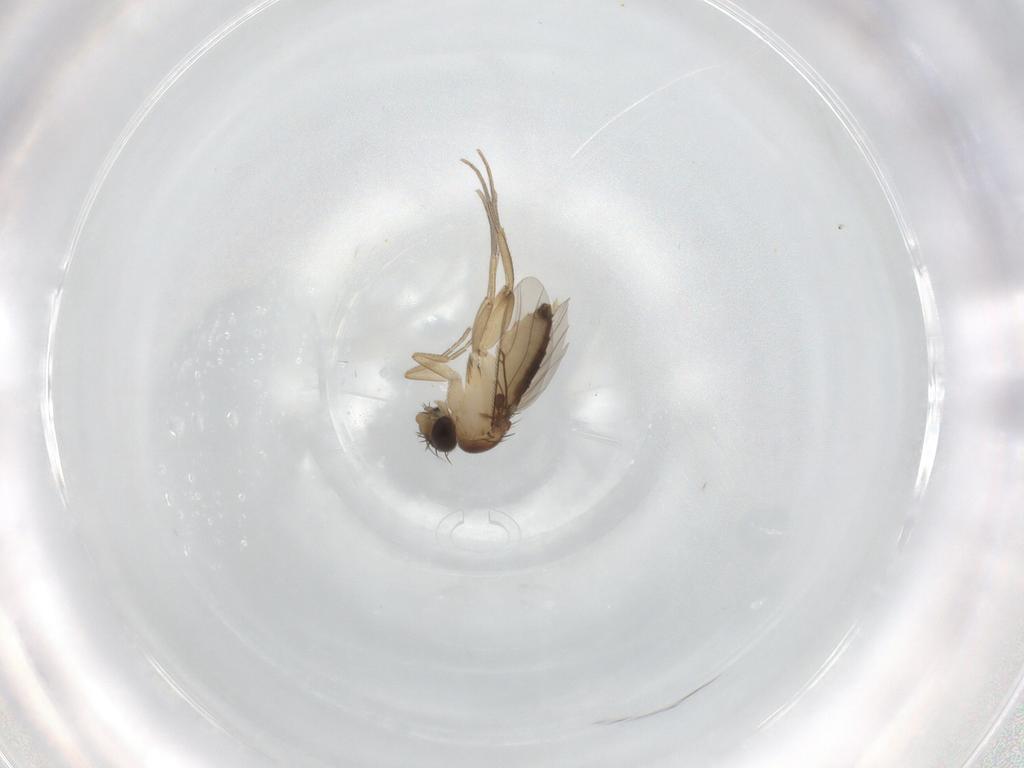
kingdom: Animalia
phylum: Arthropoda
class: Insecta
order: Diptera
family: Phoridae
